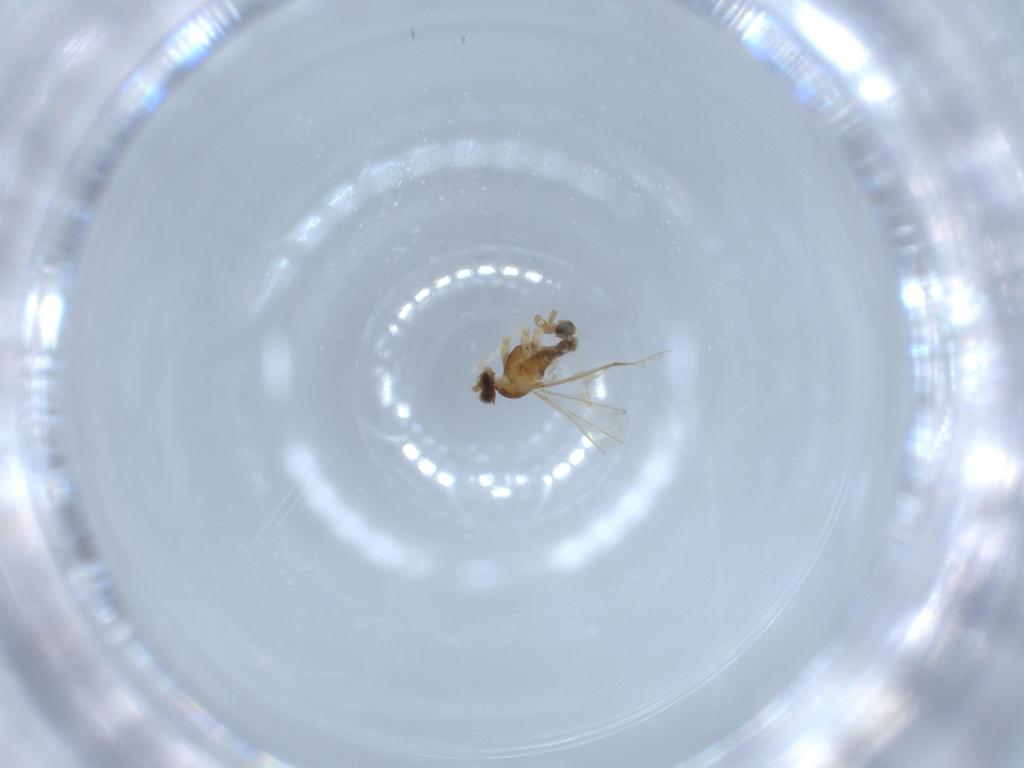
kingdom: Animalia
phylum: Arthropoda
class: Insecta
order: Diptera
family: Cecidomyiidae
